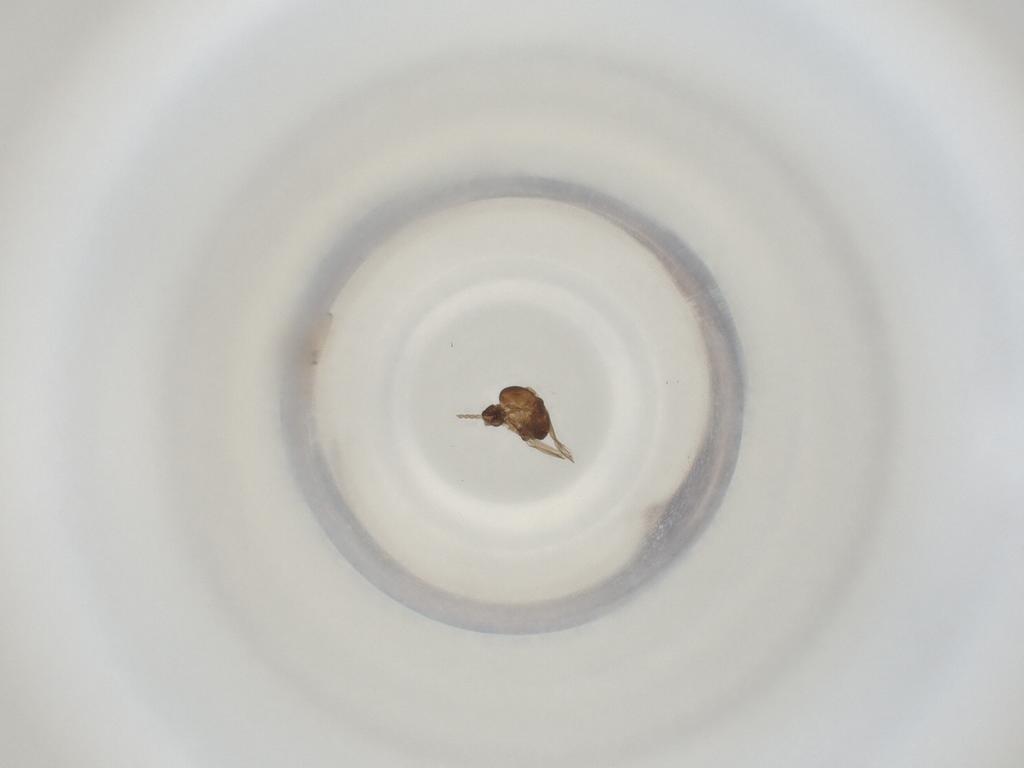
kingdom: Animalia
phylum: Arthropoda
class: Insecta
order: Diptera
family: Cecidomyiidae
